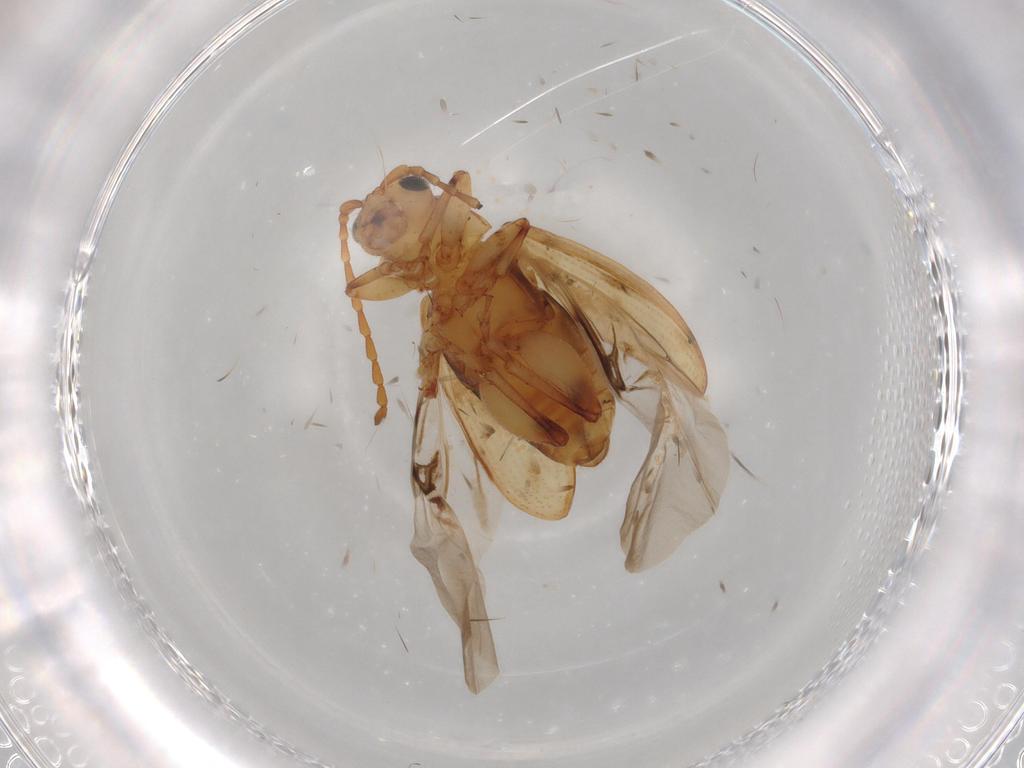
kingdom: Animalia
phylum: Arthropoda
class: Insecta
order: Coleoptera
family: Chrysomelidae
